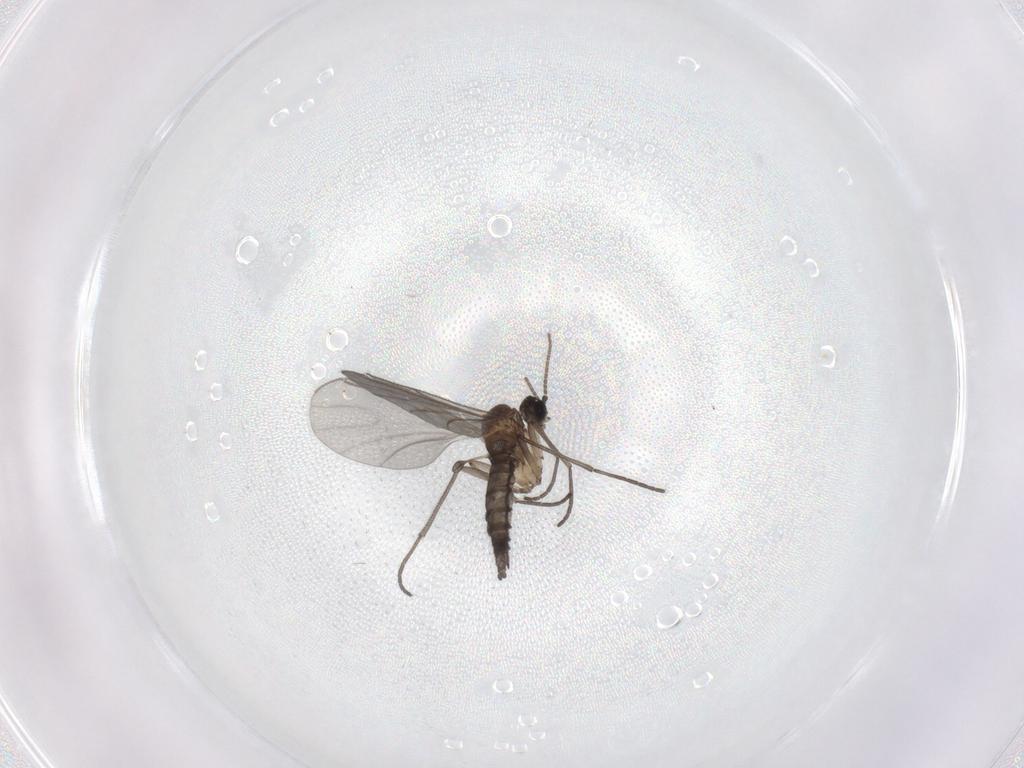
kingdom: Animalia
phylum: Arthropoda
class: Insecta
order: Diptera
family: Sciaridae
